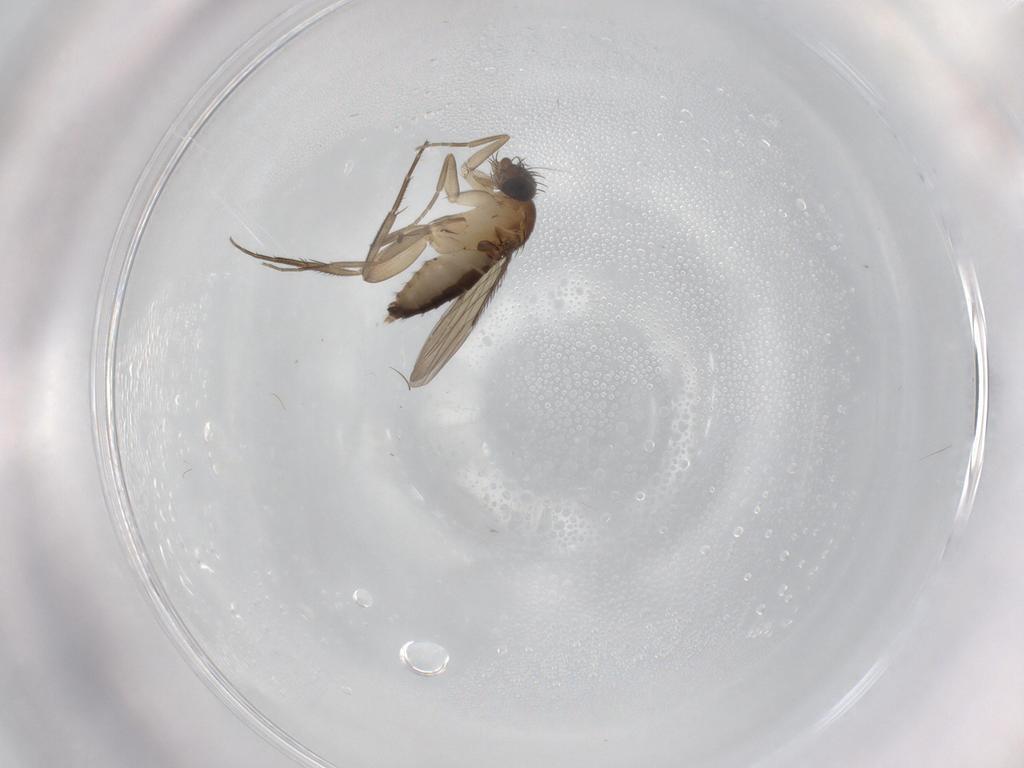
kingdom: Animalia
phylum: Arthropoda
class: Insecta
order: Diptera
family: Phoridae
